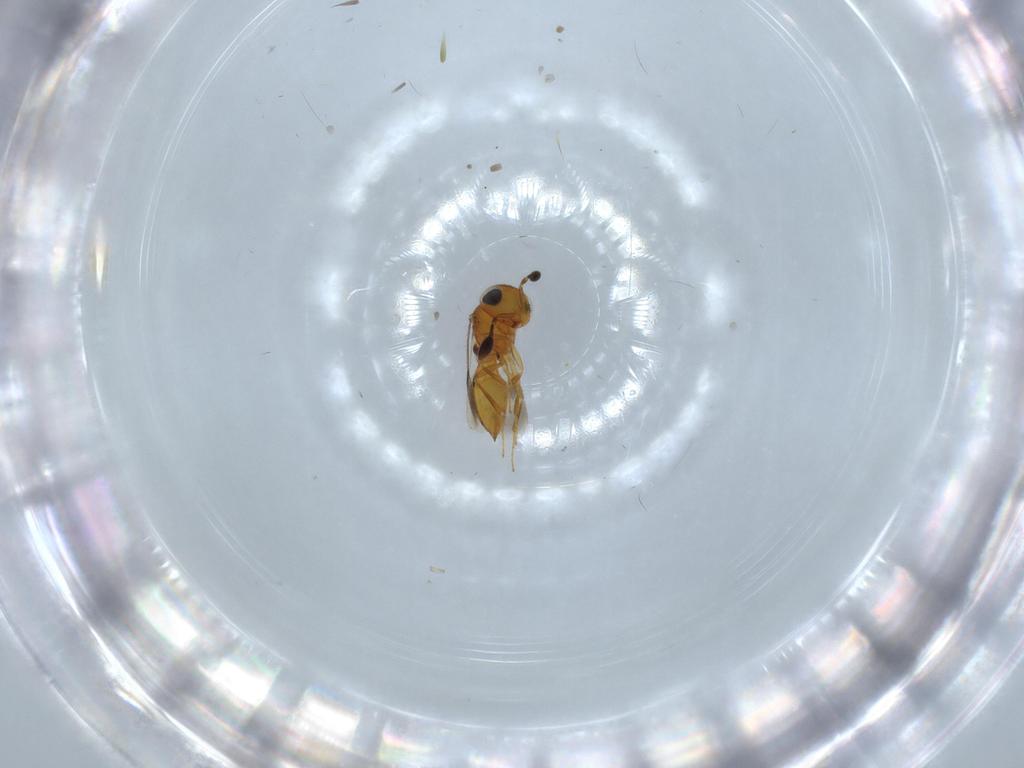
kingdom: Animalia
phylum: Arthropoda
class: Insecta
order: Hymenoptera
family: Scelionidae
